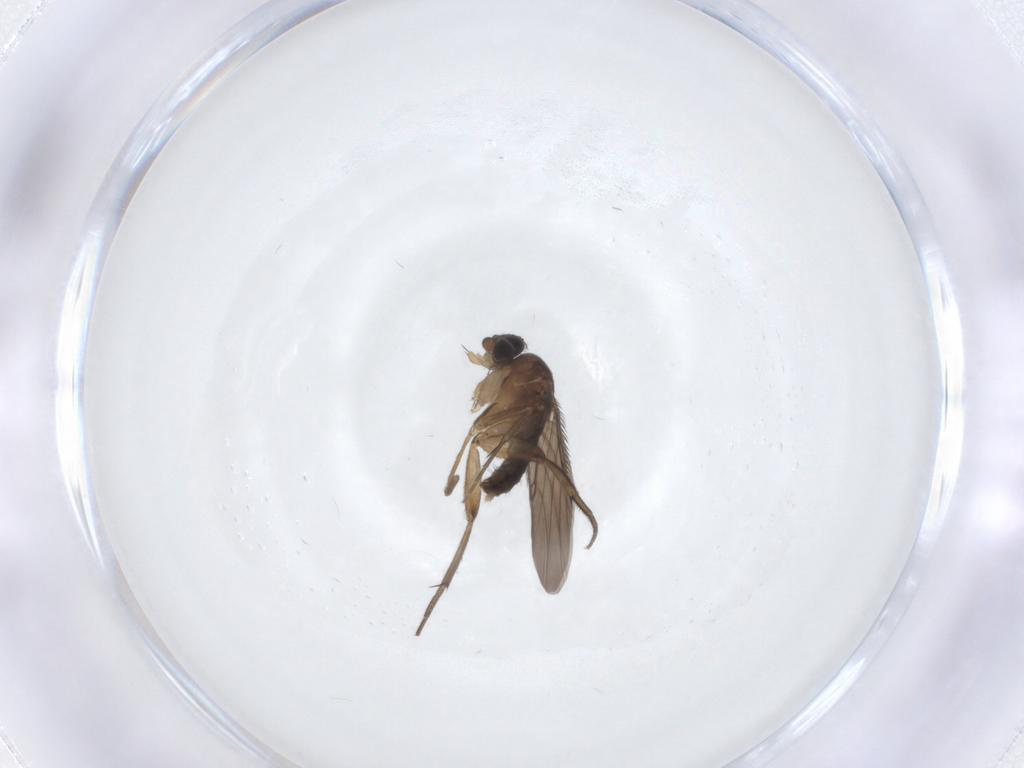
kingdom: Animalia
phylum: Arthropoda
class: Insecta
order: Diptera
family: Phoridae
